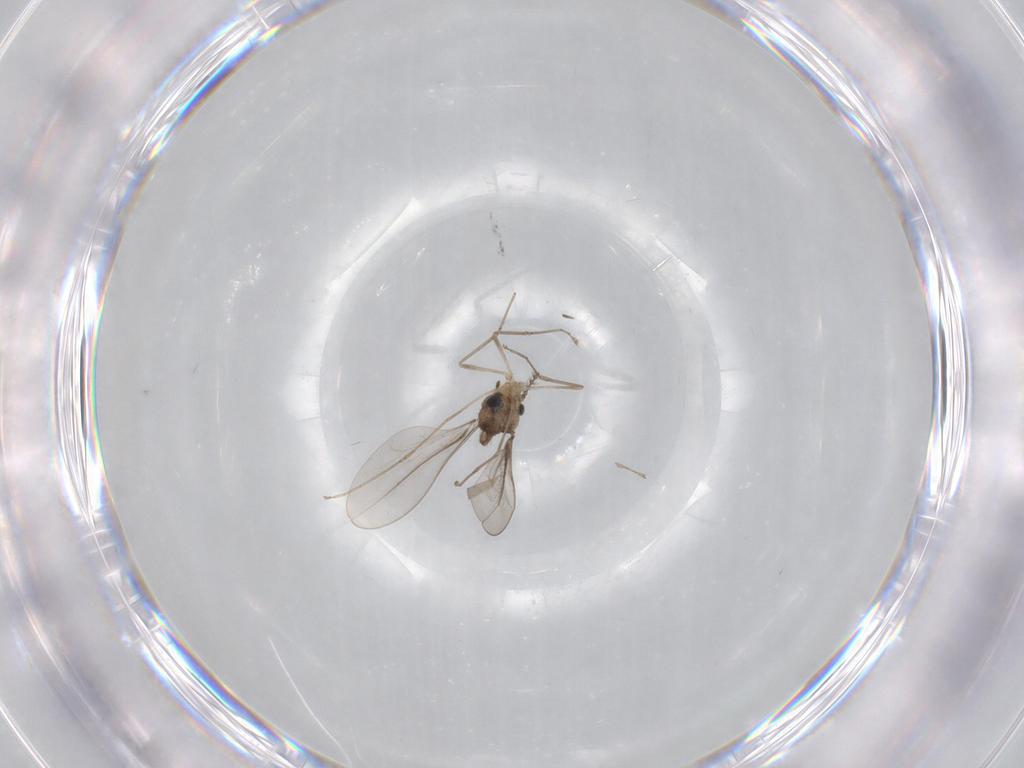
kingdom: Animalia
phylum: Arthropoda
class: Insecta
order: Diptera
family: Cecidomyiidae
